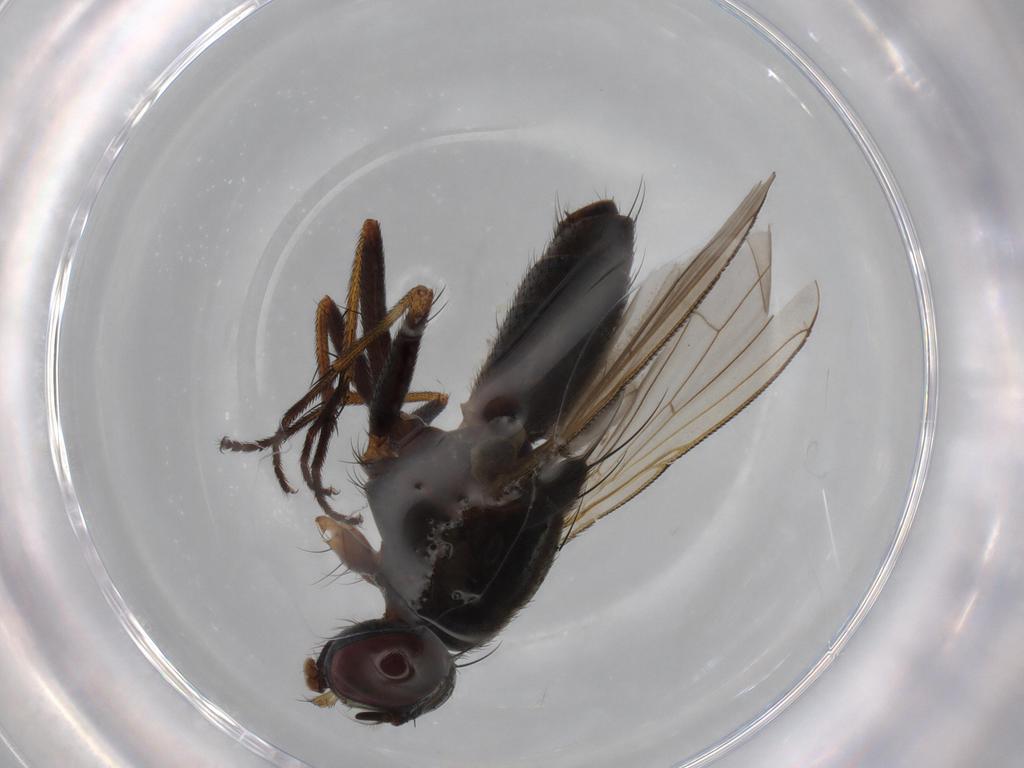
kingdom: Animalia
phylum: Arthropoda
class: Insecta
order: Diptera
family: Muscidae
